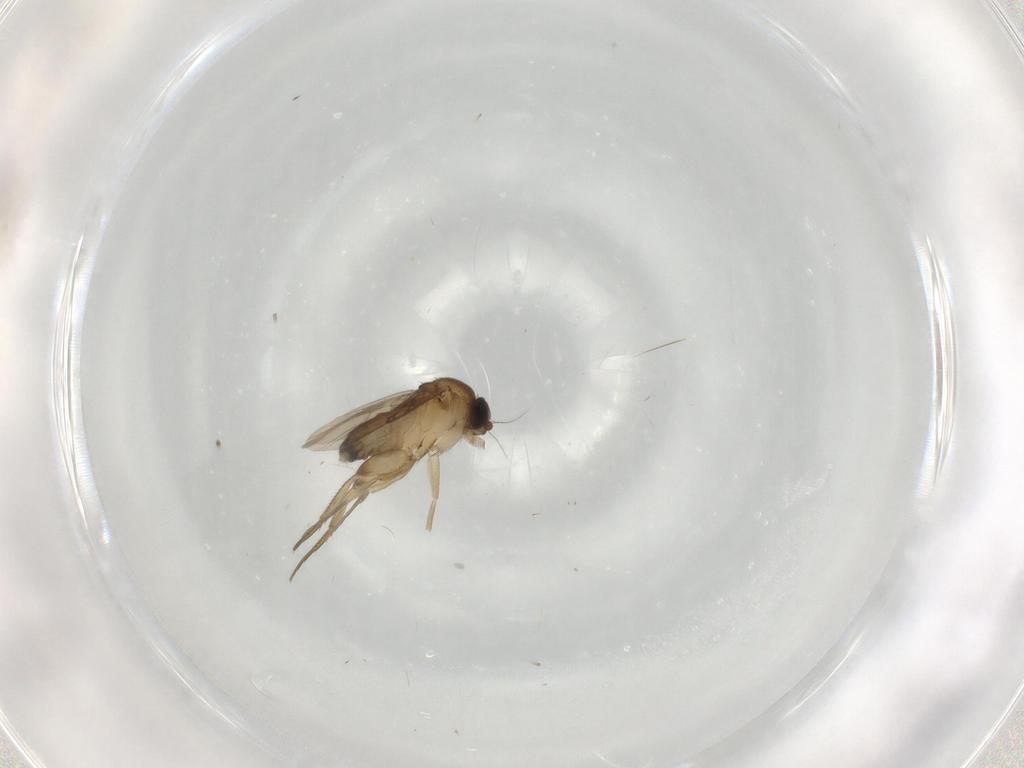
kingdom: Animalia
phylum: Arthropoda
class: Insecta
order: Diptera
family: Phoridae
